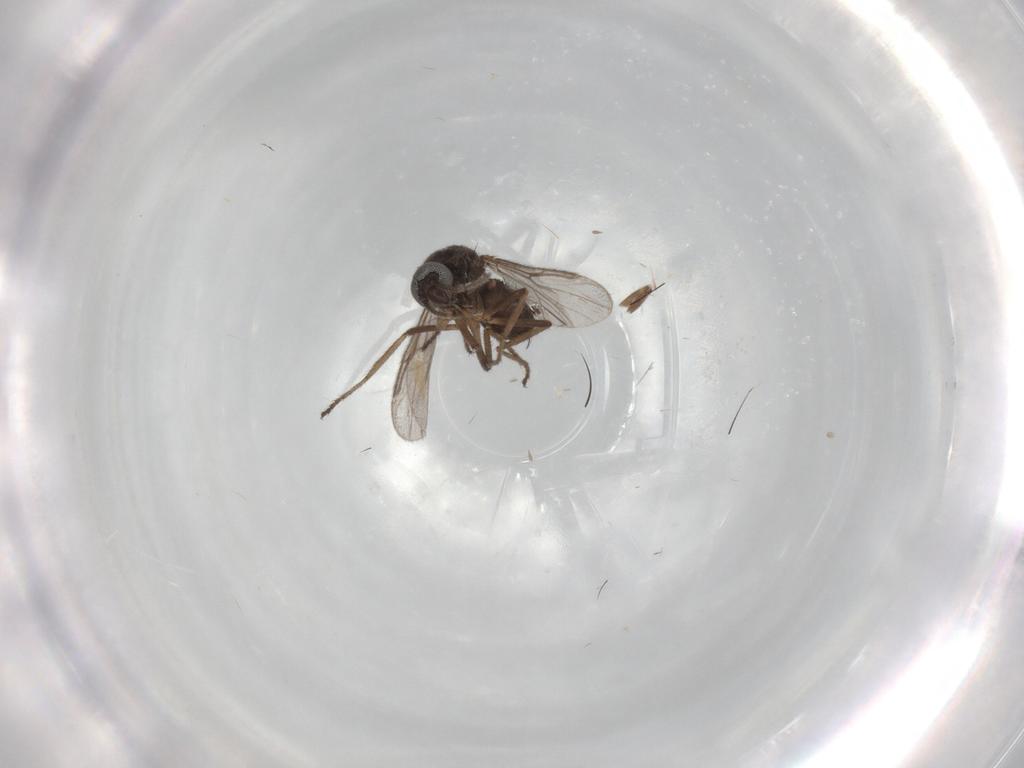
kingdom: Animalia
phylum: Arthropoda
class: Insecta
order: Diptera
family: Ceratopogonidae
